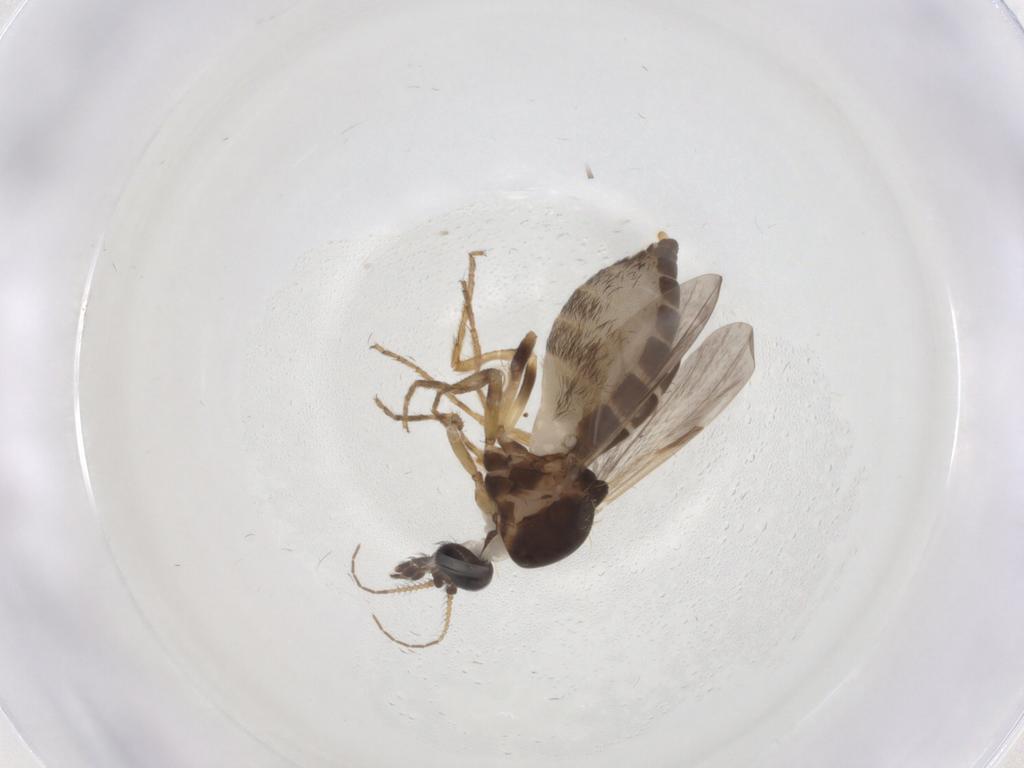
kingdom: Animalia
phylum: Arthropoda
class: Insecta
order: Diptera
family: Ceratopogonidae
